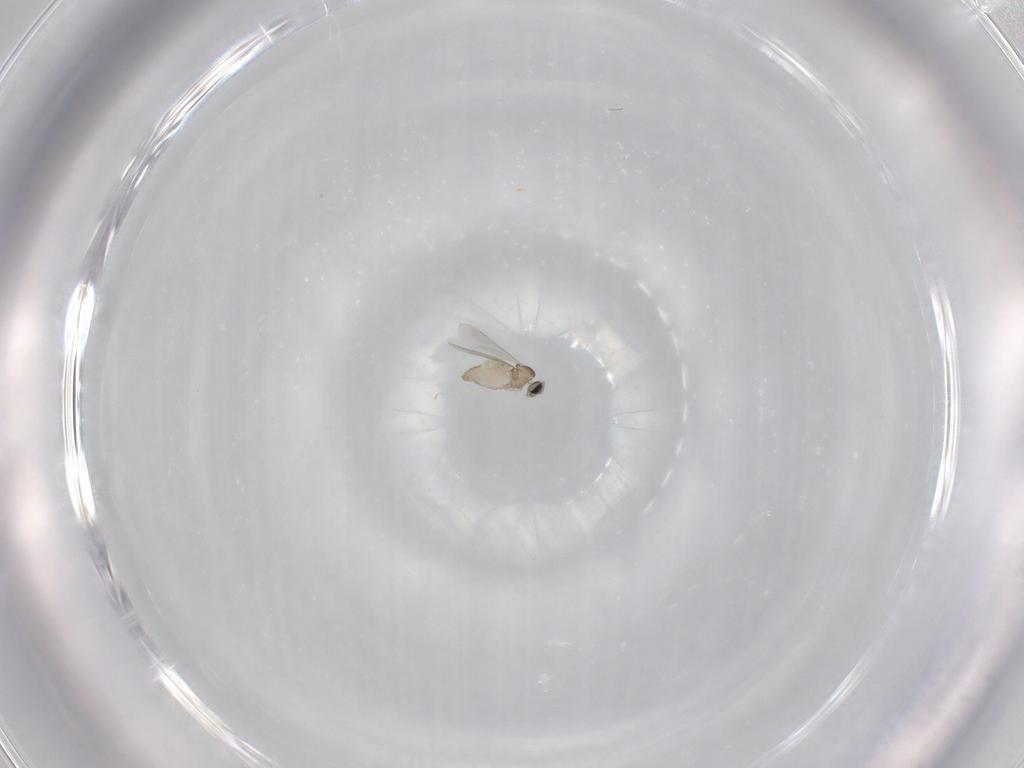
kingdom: Animalia
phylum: Arthropoda
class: Insecta
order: Diptera
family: Cecidomyiidae
